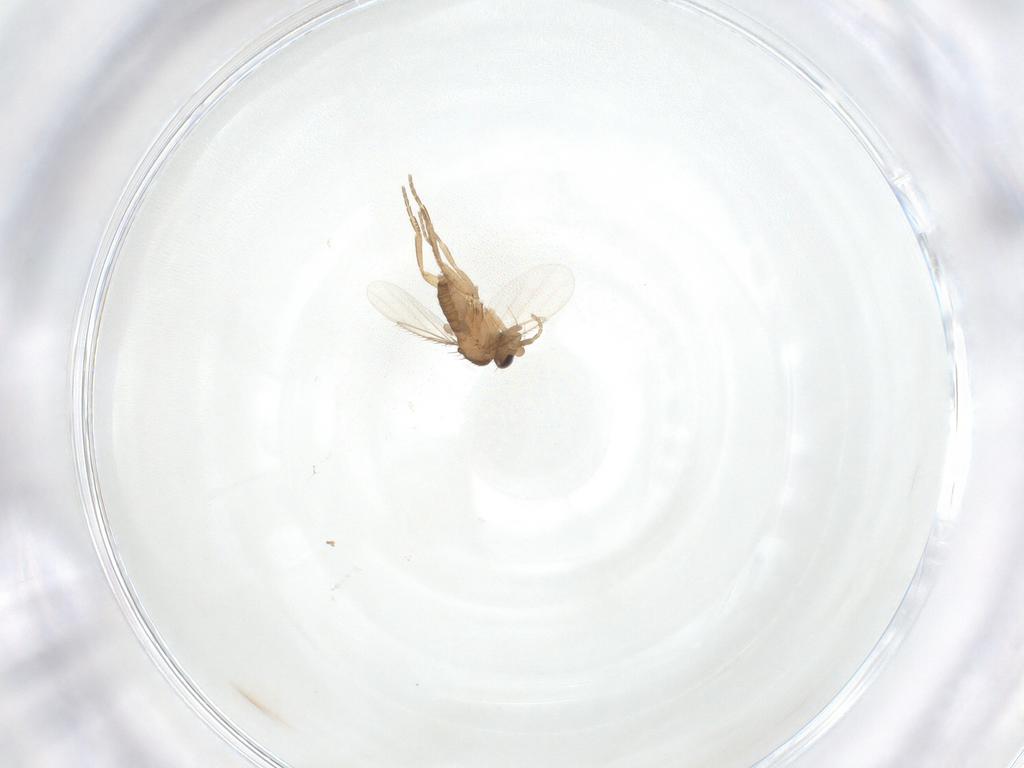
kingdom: Animalia
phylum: Arthropoda
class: Insecta
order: Diptera
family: Phoridae
